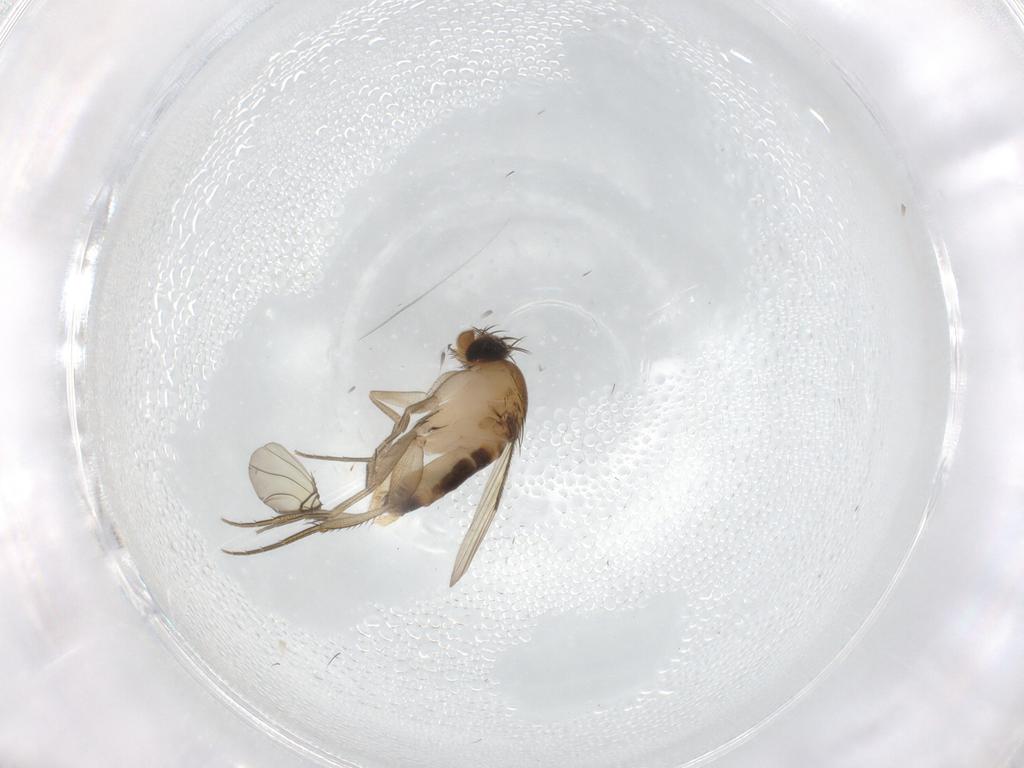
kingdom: Animalia
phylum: Arthropoda
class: Insecta
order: Diptera
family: Phoridae
